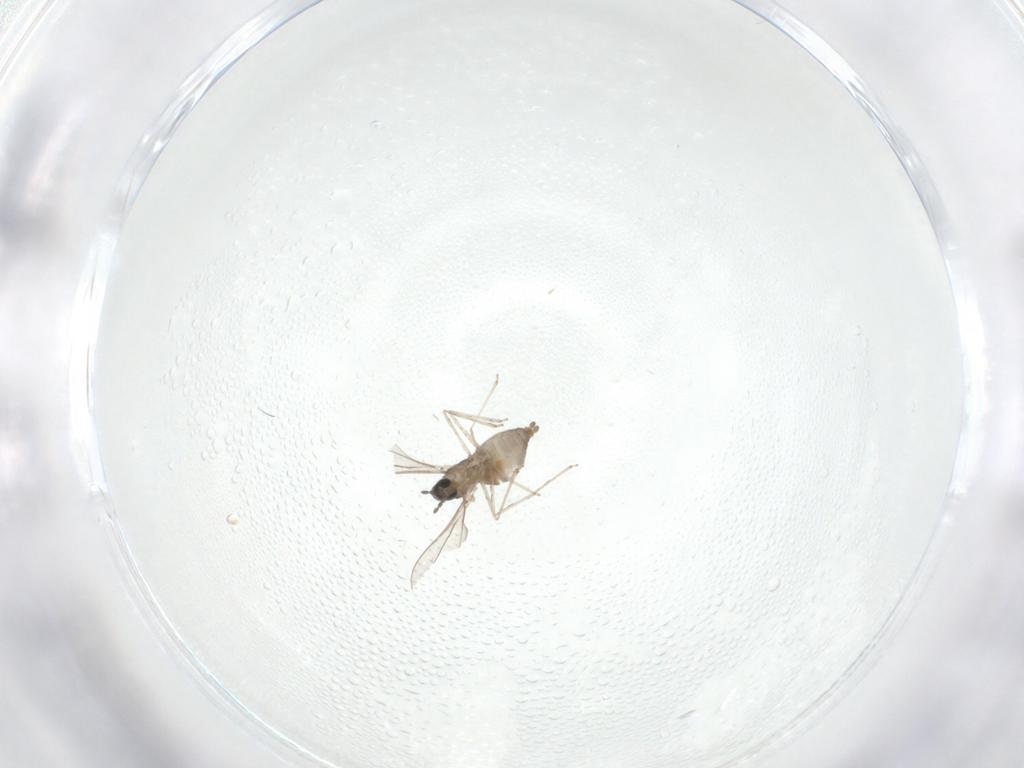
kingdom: Animalia
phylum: Arthropoda
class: Insecta
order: Diptera
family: Cecidomyiidae
